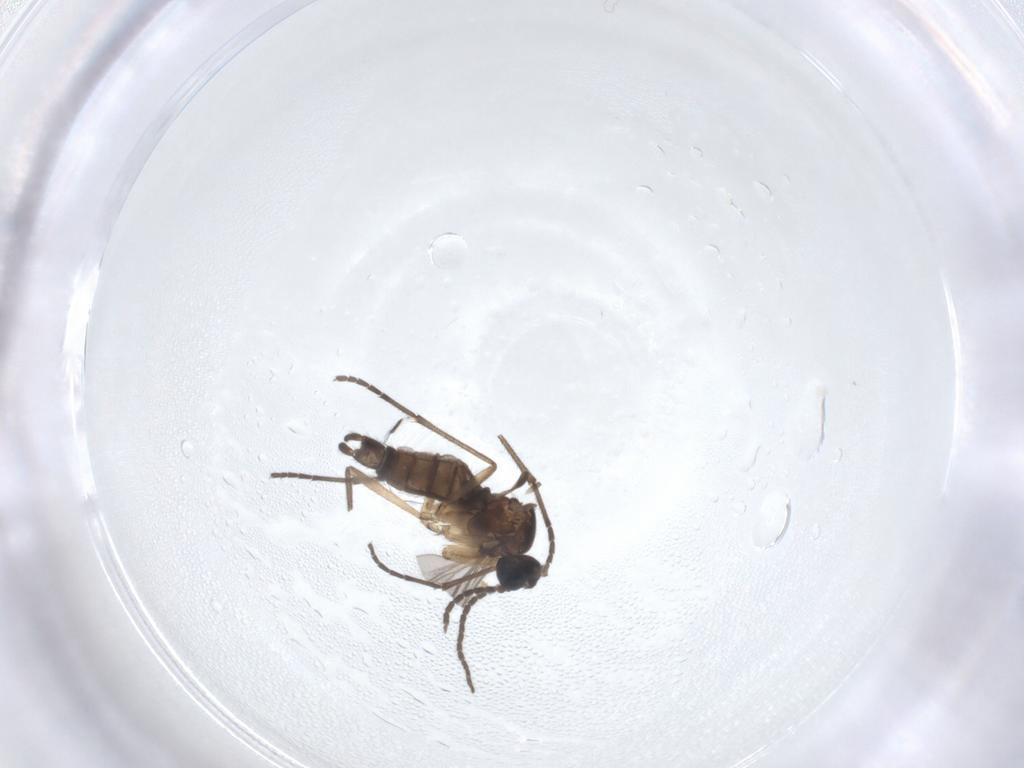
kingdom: Animalia
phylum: Arthropoda
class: Insecta
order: Diptera
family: Sciaridae
